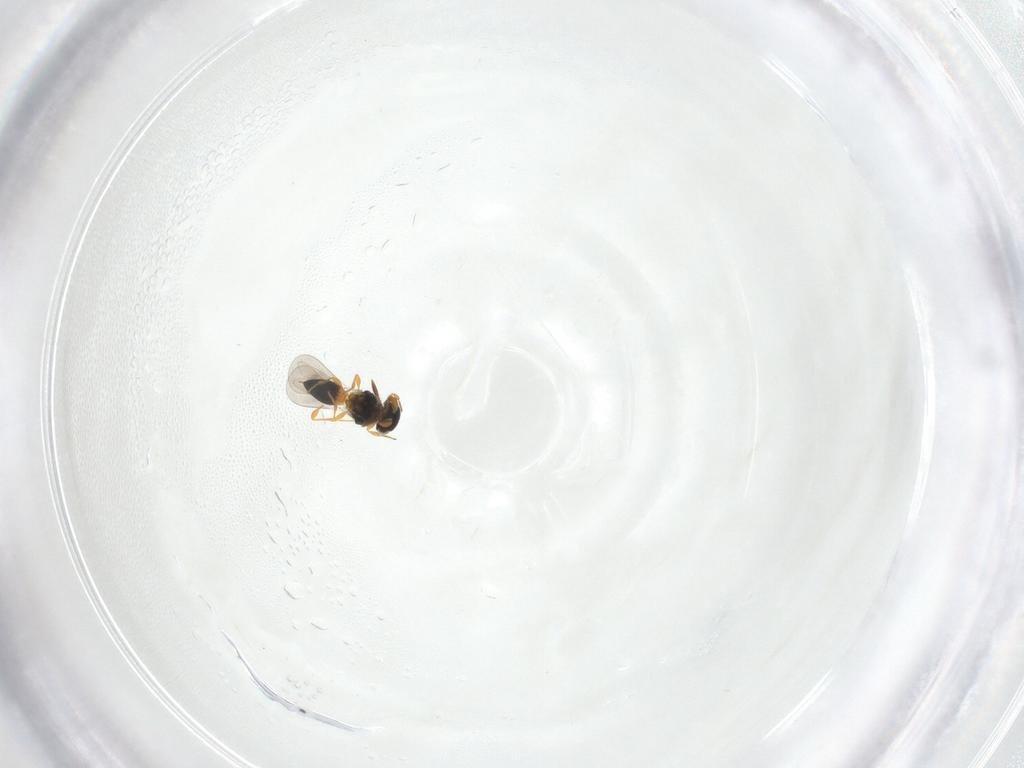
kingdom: Animalia
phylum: Arthropoda
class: Insecta
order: Hymenoptera
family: Platygastridae
